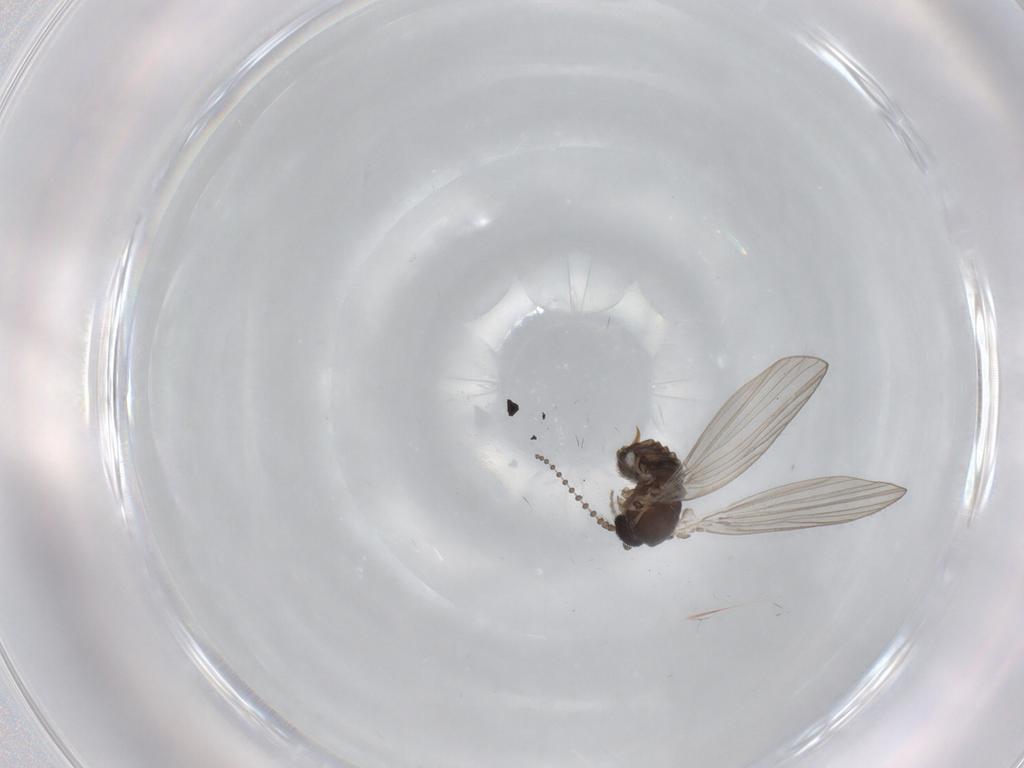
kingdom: Animalia
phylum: Arthropoda
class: Insecta
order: Diptera
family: Psychodidae
